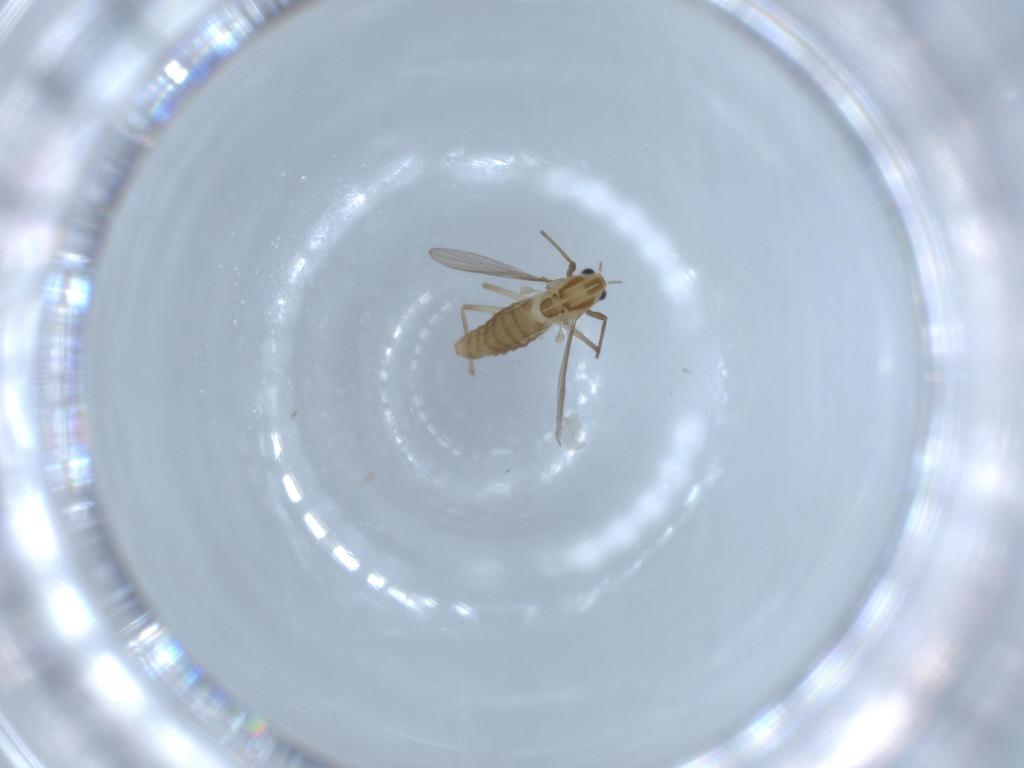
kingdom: Animalia
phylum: Arthropoda
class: Insecta
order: Diptera
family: Chironomidae
